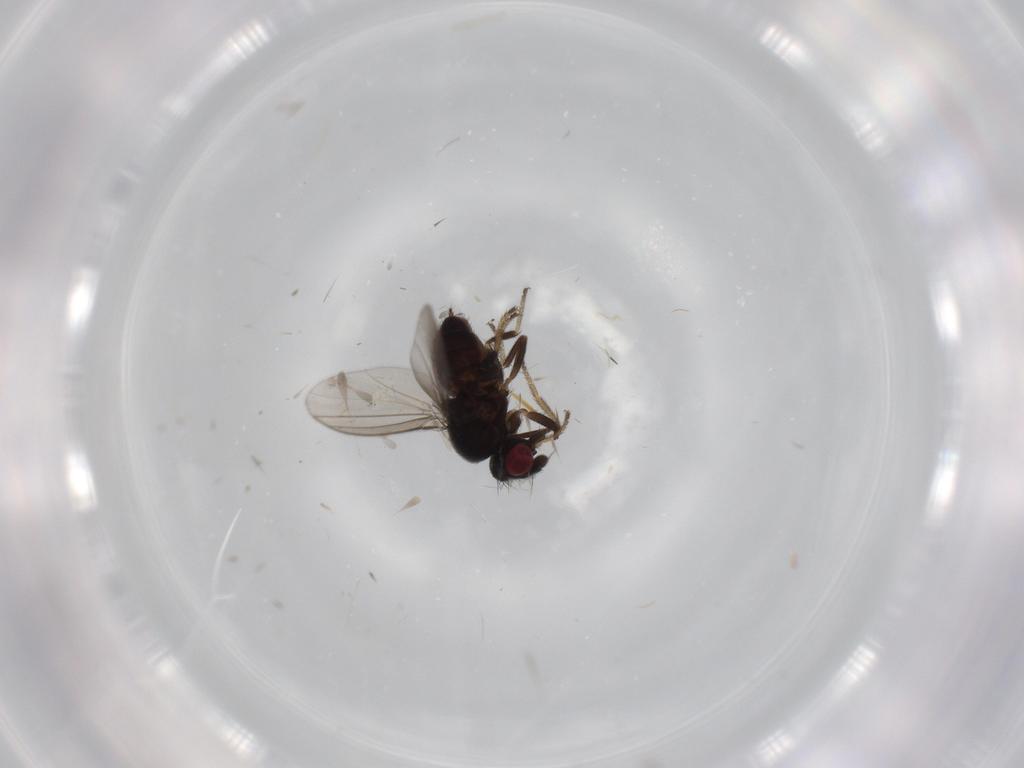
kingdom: Animalia
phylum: Arthropoda
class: Insecta
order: Diptera
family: Milichiidae
